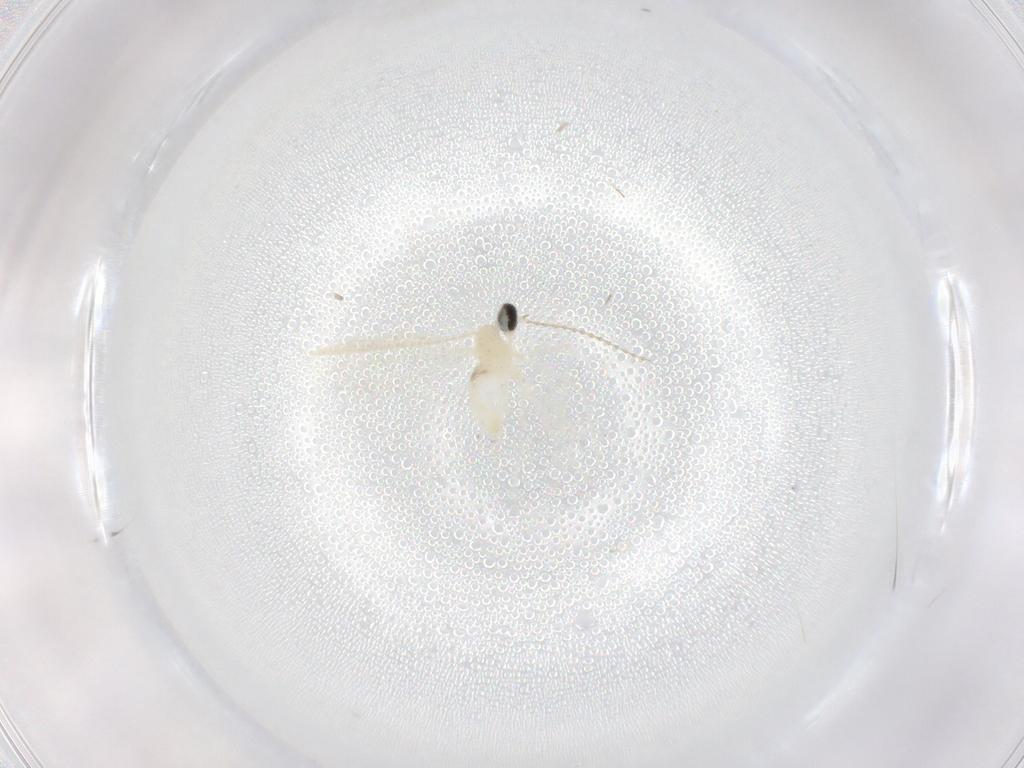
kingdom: Animalia
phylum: Arthropoda
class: Insecta
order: Diptera
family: Cecidomyiidae
